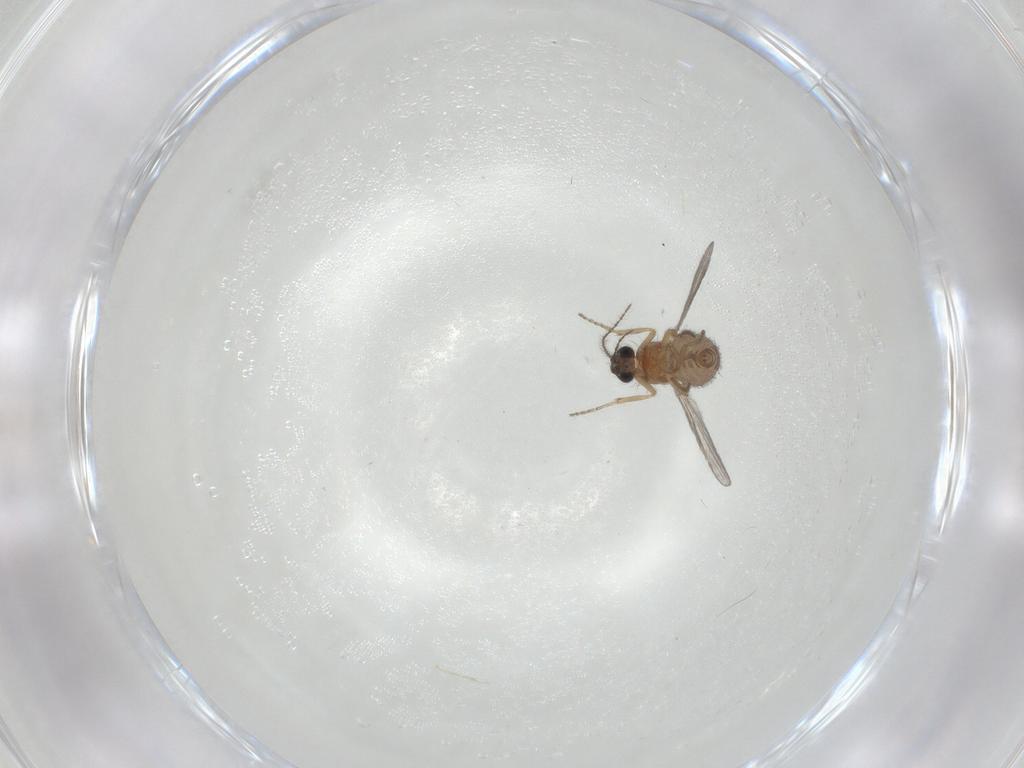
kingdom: Animalia
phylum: Arthropoda
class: Insecta
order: Diptera
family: Ceratopogonidae
